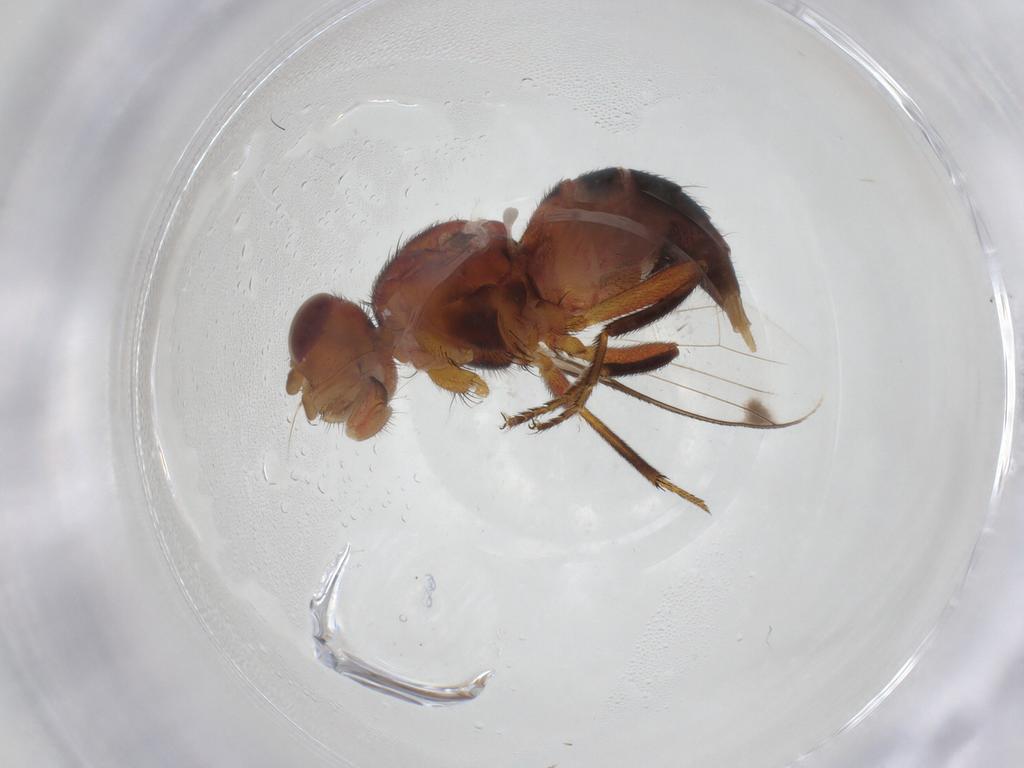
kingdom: Animalia
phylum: Arthropoda
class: Insecta
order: Diptera
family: Richardiidae
